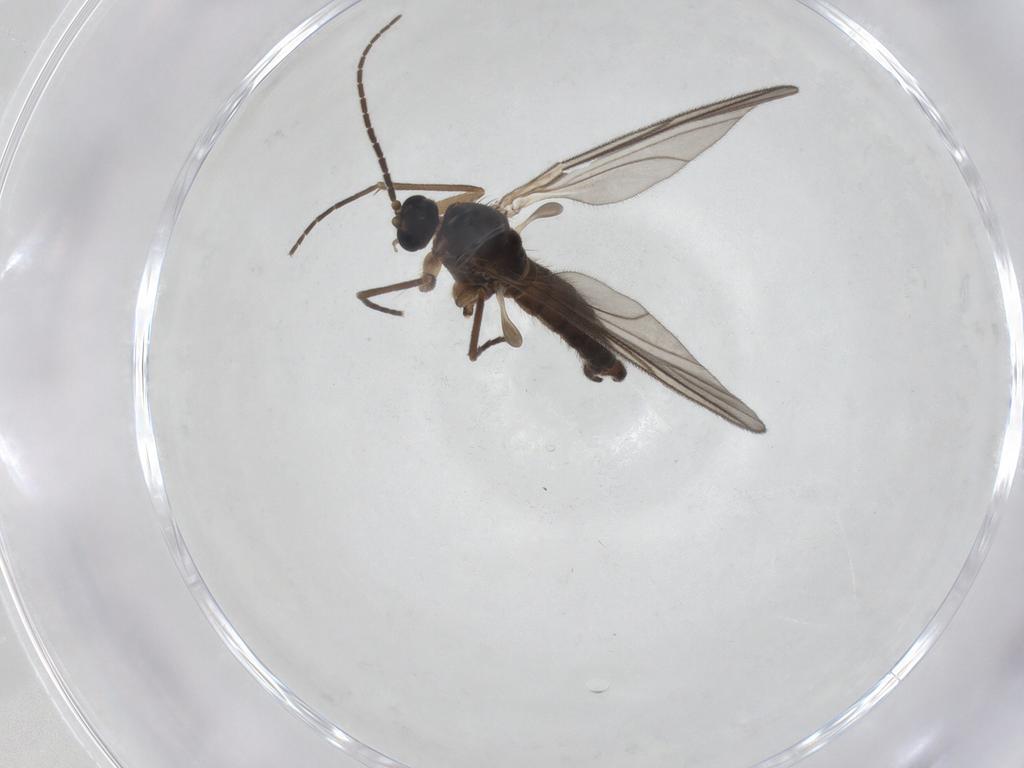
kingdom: Animalia
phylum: Arthropoda
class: Insecta
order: Diptera
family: Sciaridae
